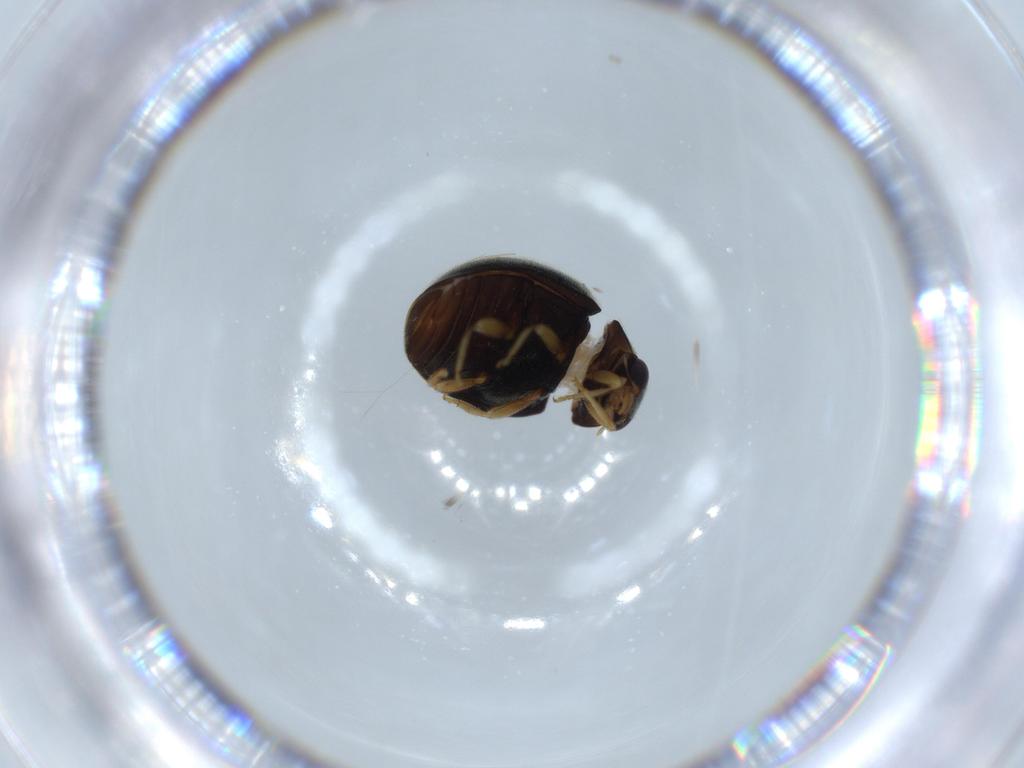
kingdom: Animalia
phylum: Arthropoda
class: Insecta
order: Coleoptera
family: Coccinellidae
